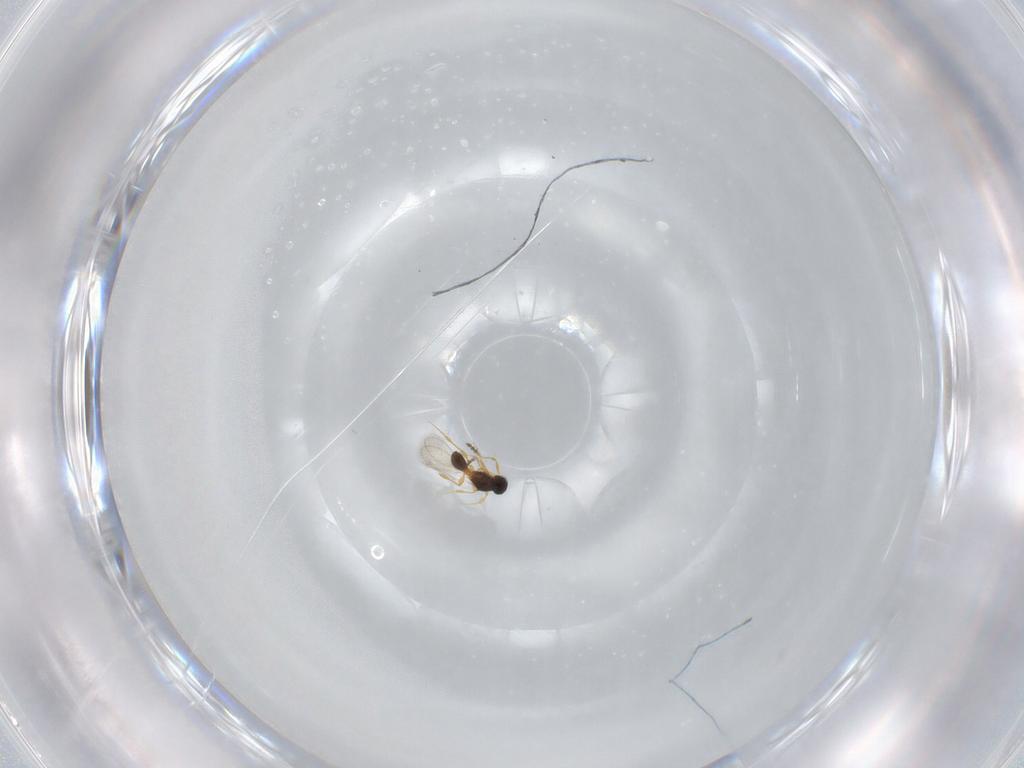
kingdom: Animalia
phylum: Arthropoda
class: Insecta
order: Hymenoptera
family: Platygastridae
